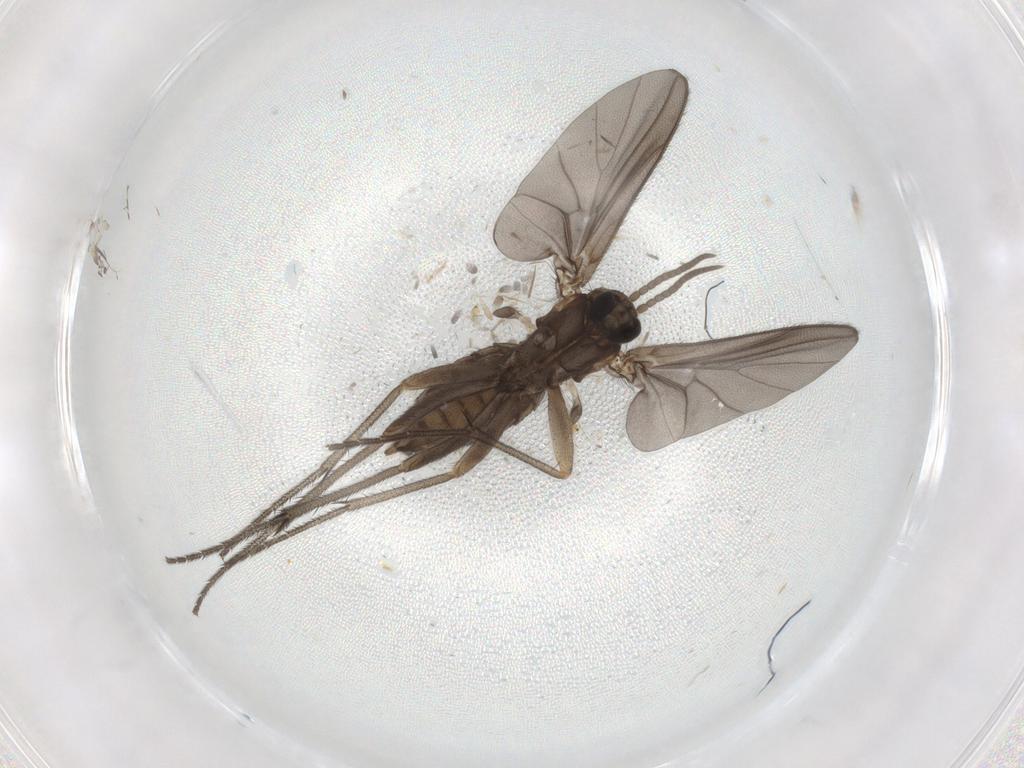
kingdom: Animalia
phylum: Arthropoda
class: Insecta
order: Diptera
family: Diadocidiidae
